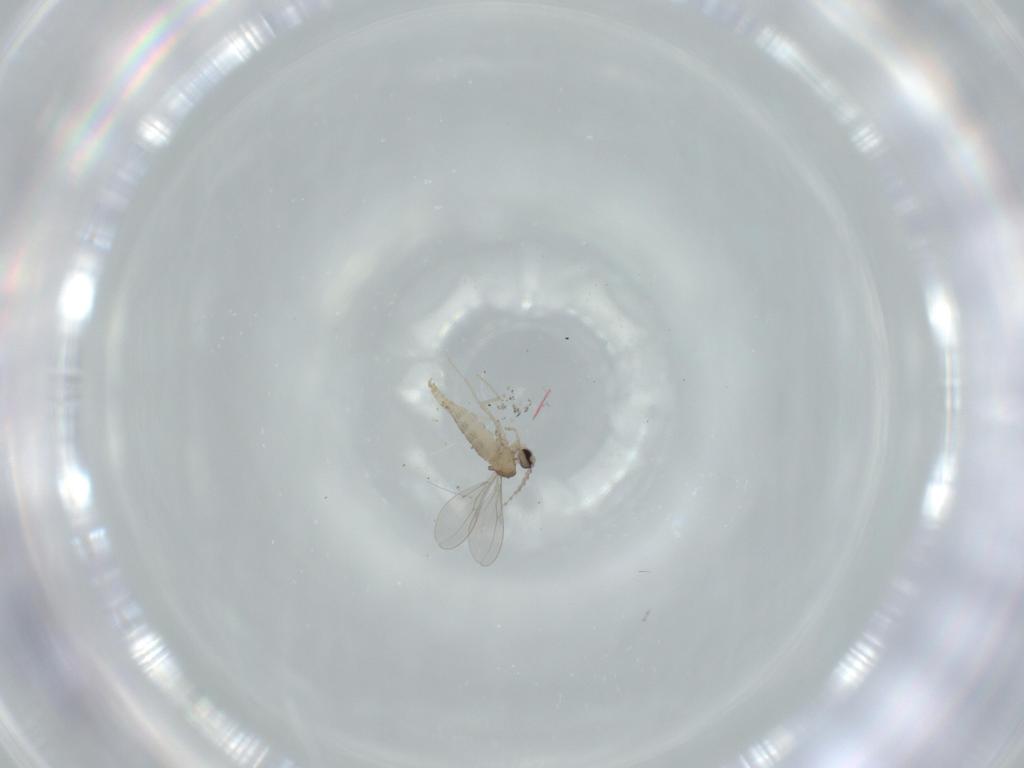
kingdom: Animalia
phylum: Arthropoda
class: Insecta
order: Diptera
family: Cecidomyiidae
